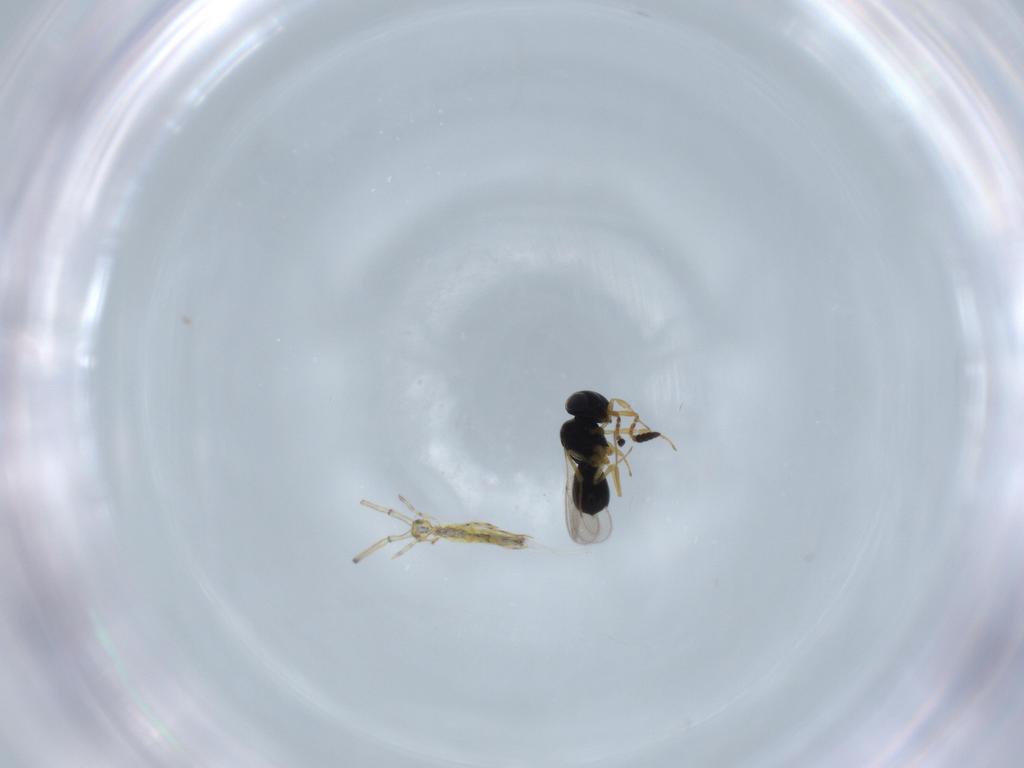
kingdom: Animalia
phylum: Arthropoda
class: Insecta
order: Hymenoptera
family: Scelionidae
